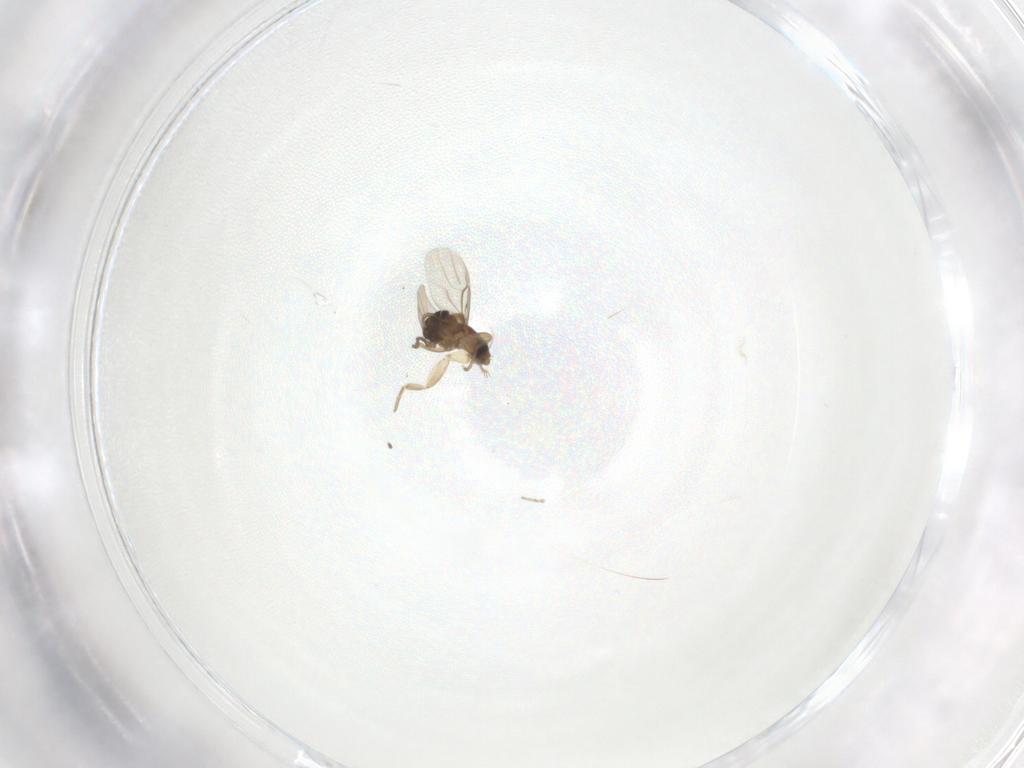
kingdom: Animalia
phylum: Arthropoda
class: Insecta
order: Diptera
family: Phoridae
